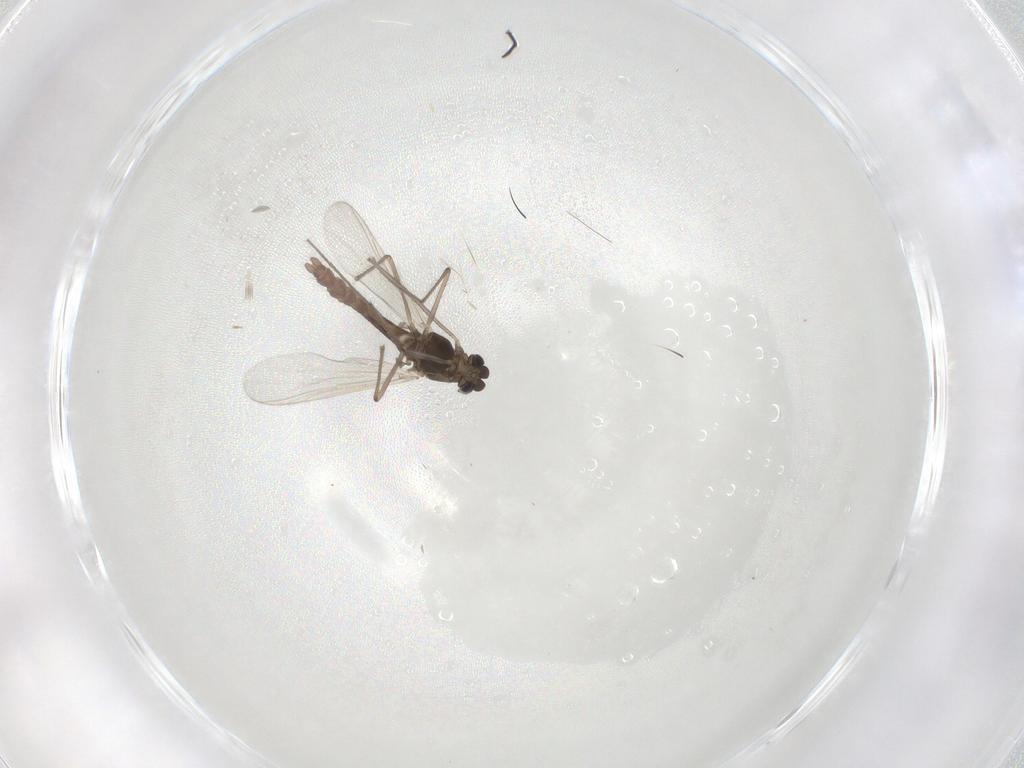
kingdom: Animalia
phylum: Arthropoda
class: Insecta
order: Diptera
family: Chironomidae
